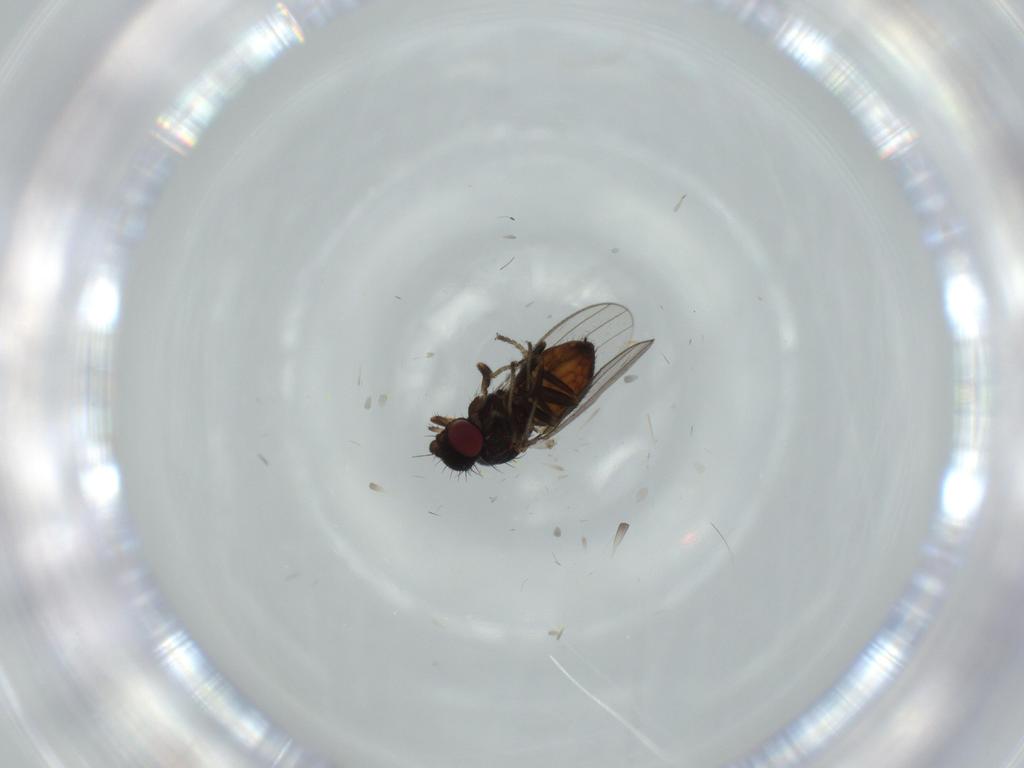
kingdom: Animalia
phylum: Arthropoda
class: Insecta
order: Diptera
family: Milichiidae
